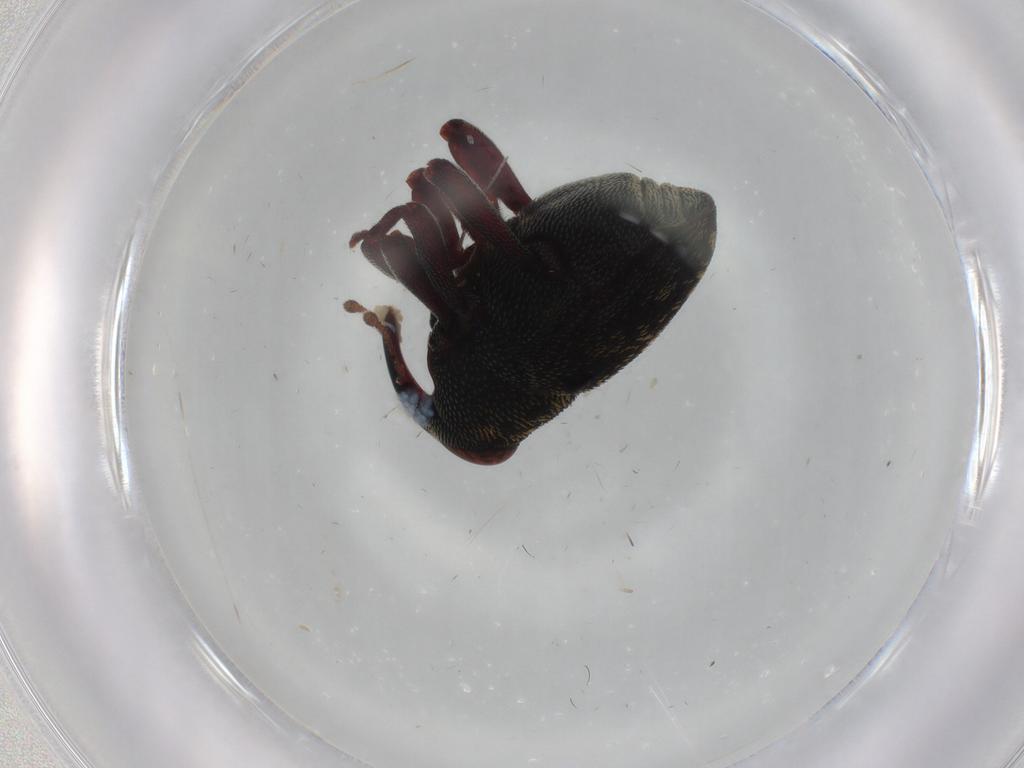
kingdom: Animalia
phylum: Arthropoda
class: Insecta
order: Coleoptera
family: Curculionidae
